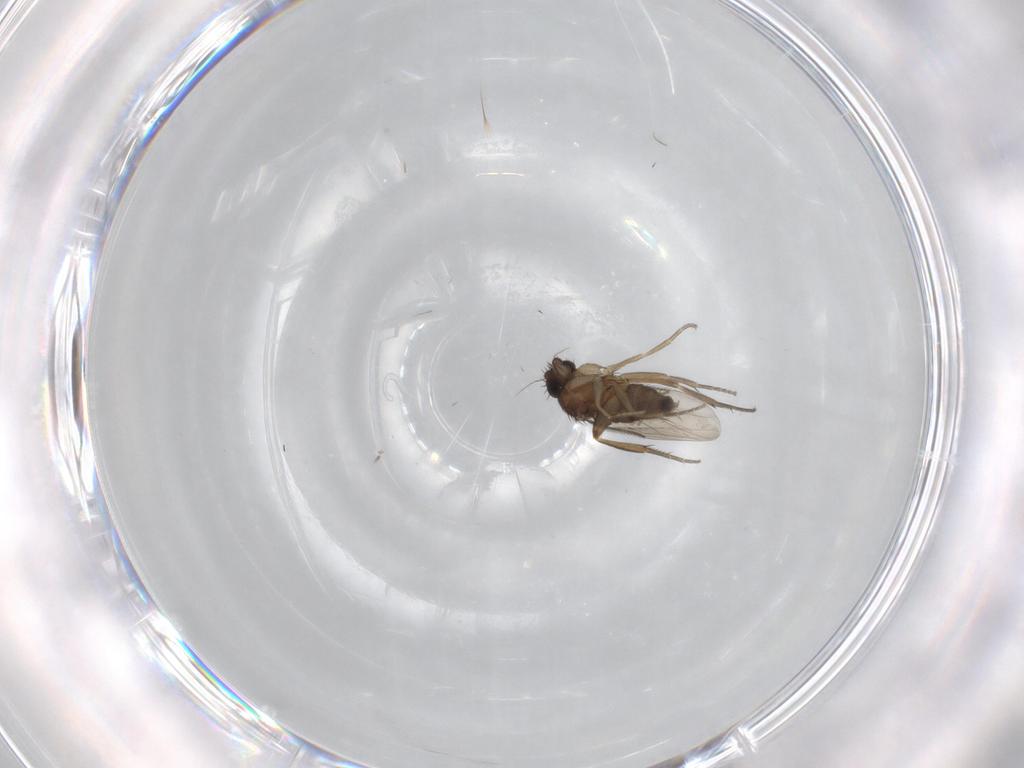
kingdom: Animalia
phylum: Arthropoda
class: Insecta
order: Diptera
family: Phoridae
